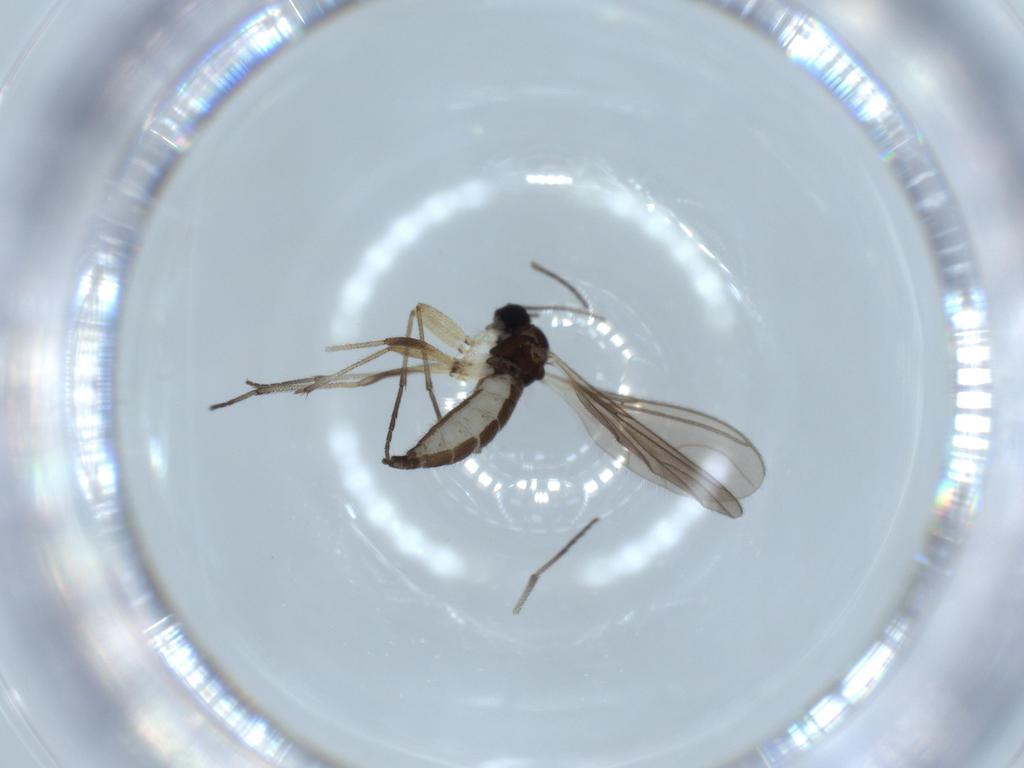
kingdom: Animalia
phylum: Arthropoda
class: Insecta
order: Diptera
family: Sciaridae
